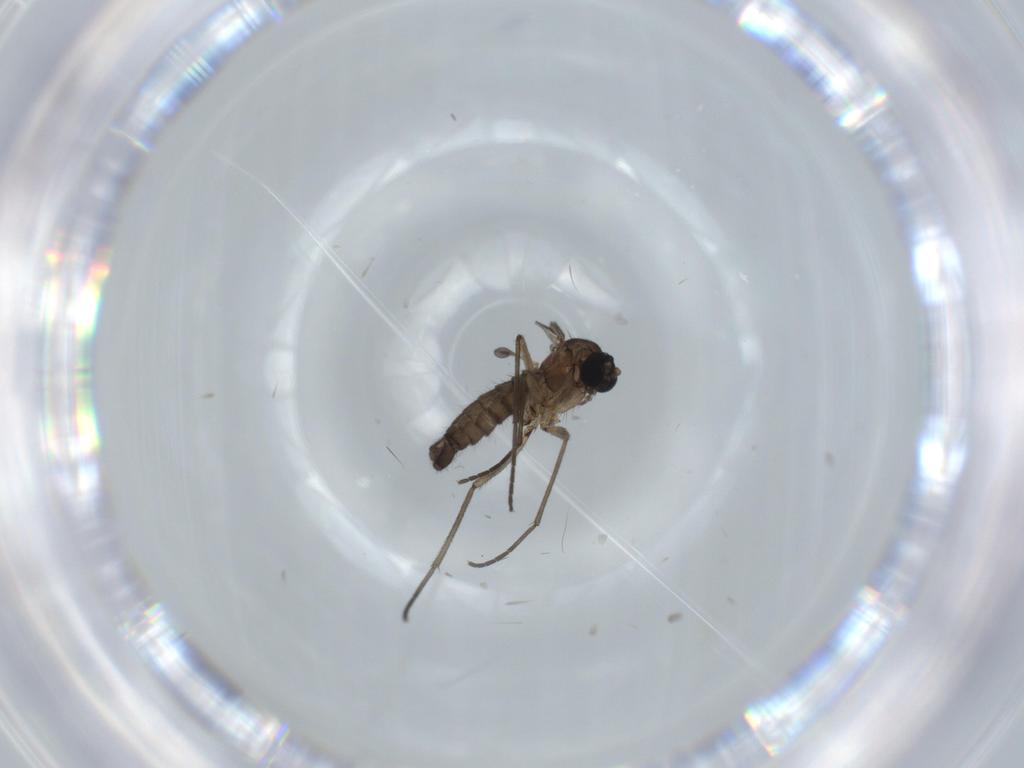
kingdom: Animalia
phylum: Arthropoda
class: Insecta
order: Diptera
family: Sciaridae
